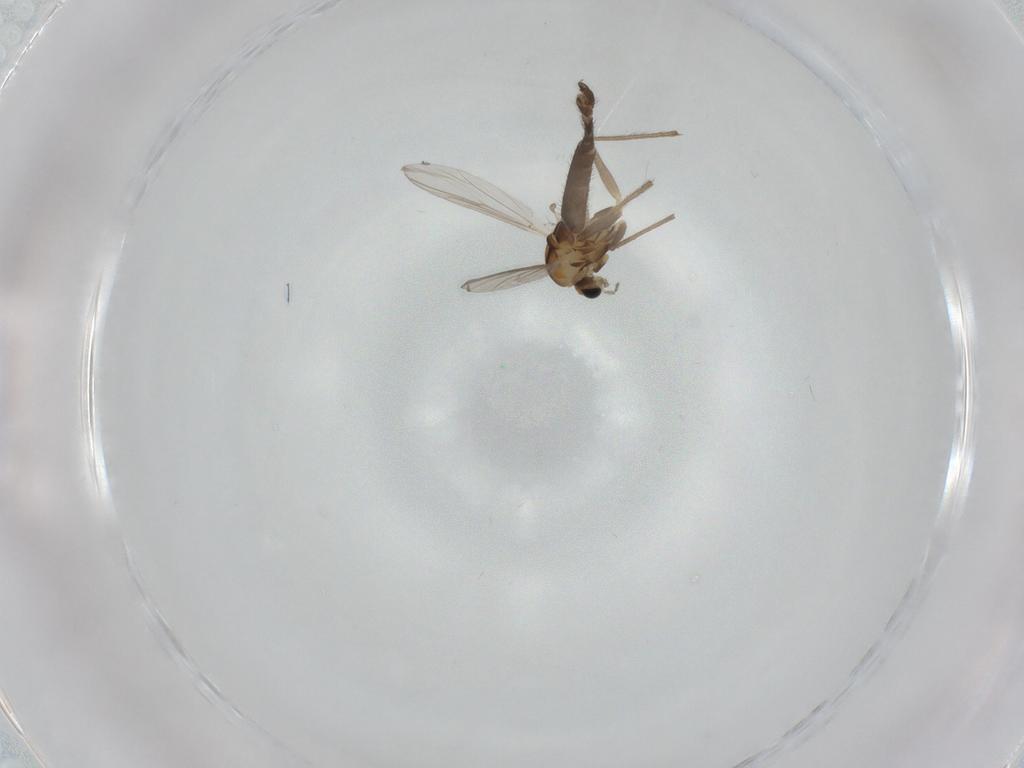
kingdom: Animalia
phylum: Arthropoda
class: Insecta
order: Diptera
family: Chironomidae
